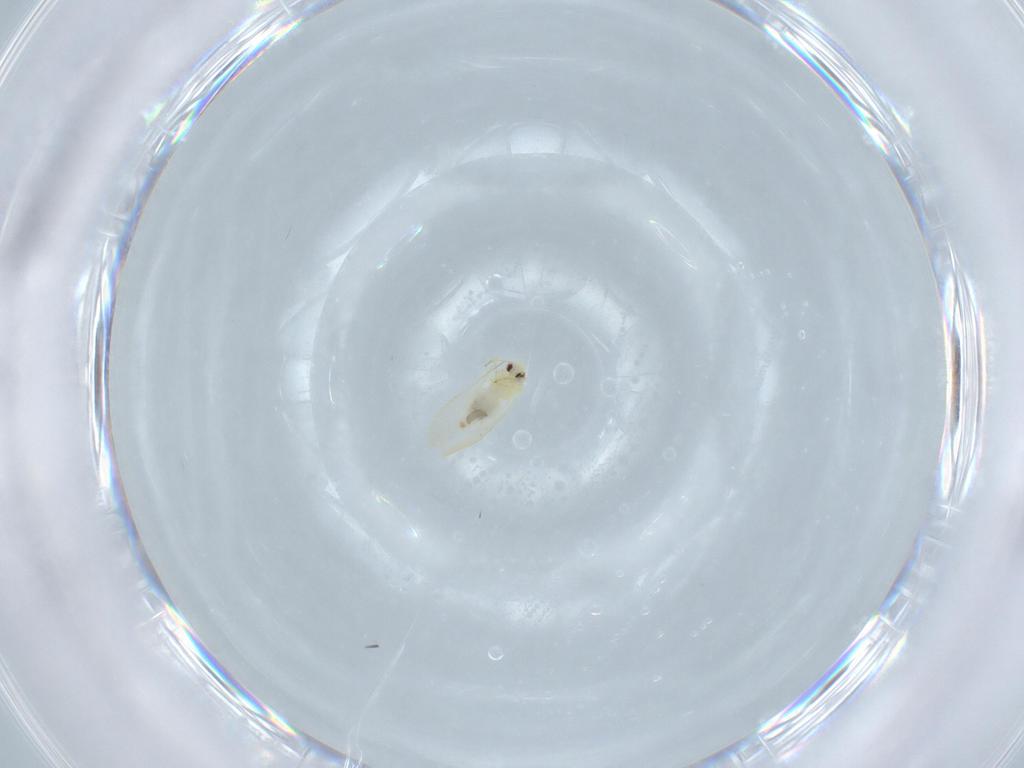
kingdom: Animalia
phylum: Arthropoda
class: Insecta
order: Hemiptera
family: Aleyrodidae
